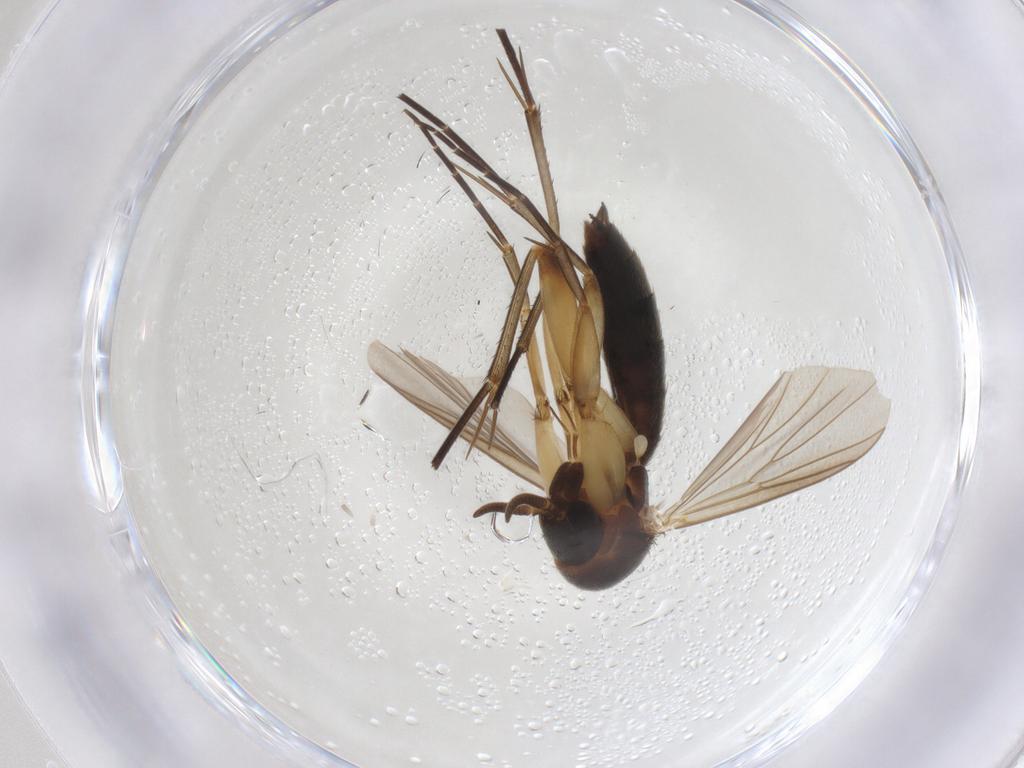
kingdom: Animalia
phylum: Arthropoda
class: Insecta
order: Diptera
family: Mycetophilidae
